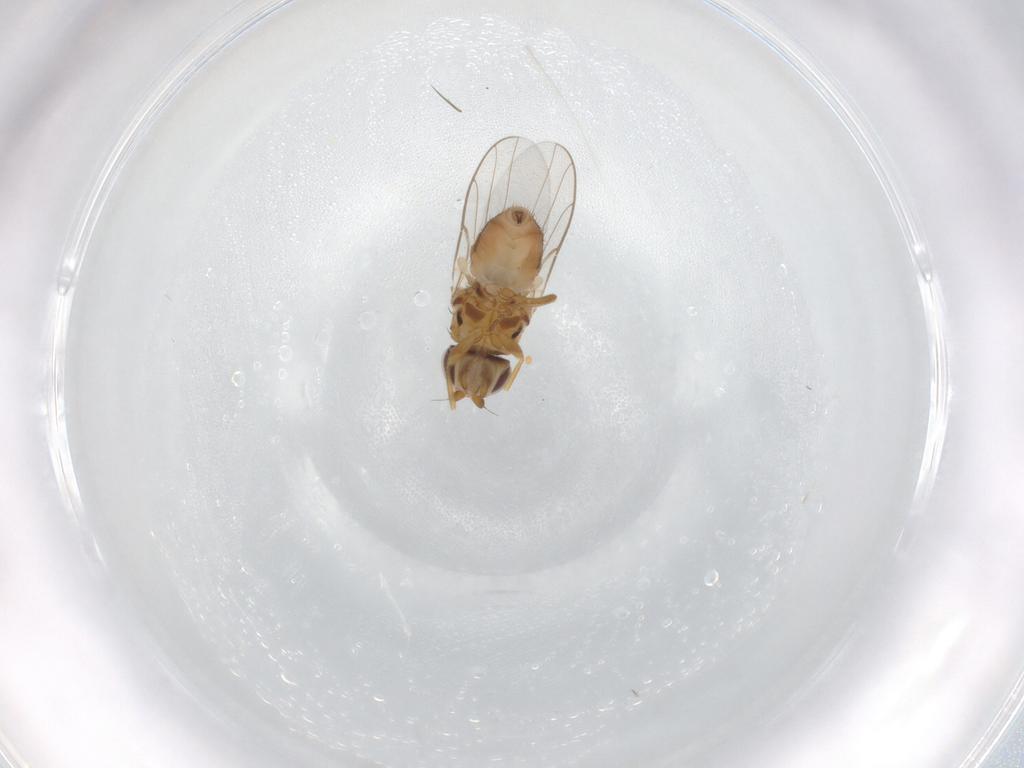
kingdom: Animalia
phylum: Arthropoda
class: Insecta
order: Diptera
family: Chloropidae
